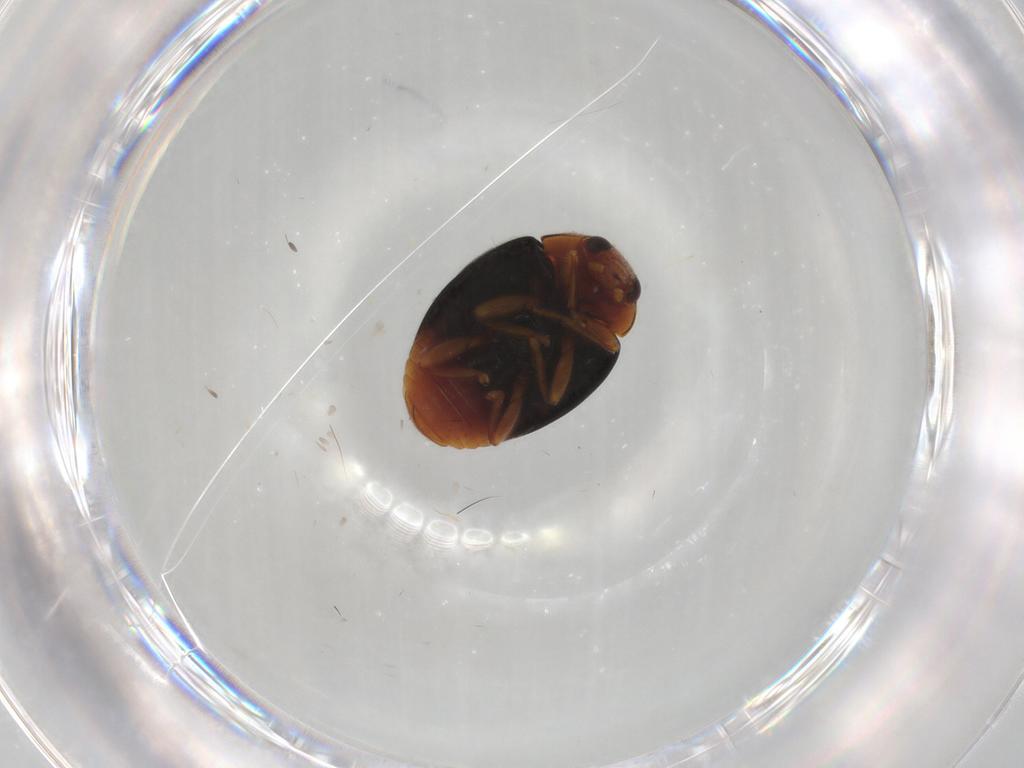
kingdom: Animalia
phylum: Arthropoda
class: Insecta
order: Coleoptera
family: Coccinellidae
